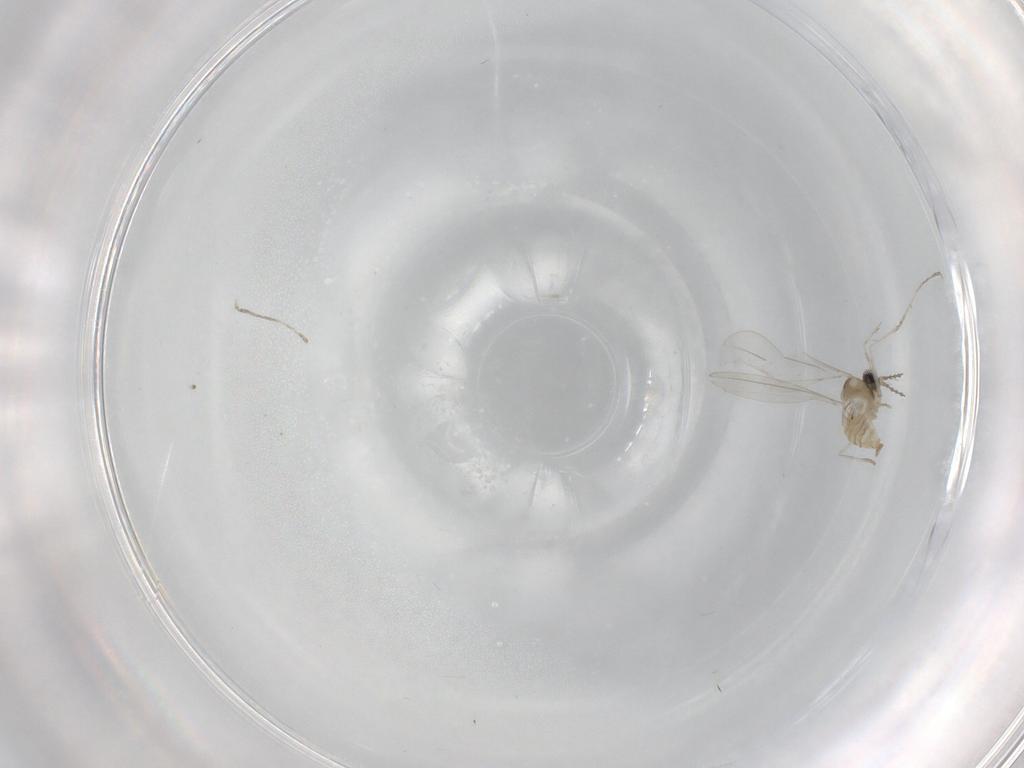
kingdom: Animalia
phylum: Arthropoda
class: Insecta
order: Diptera
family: Cecidomyiidae
